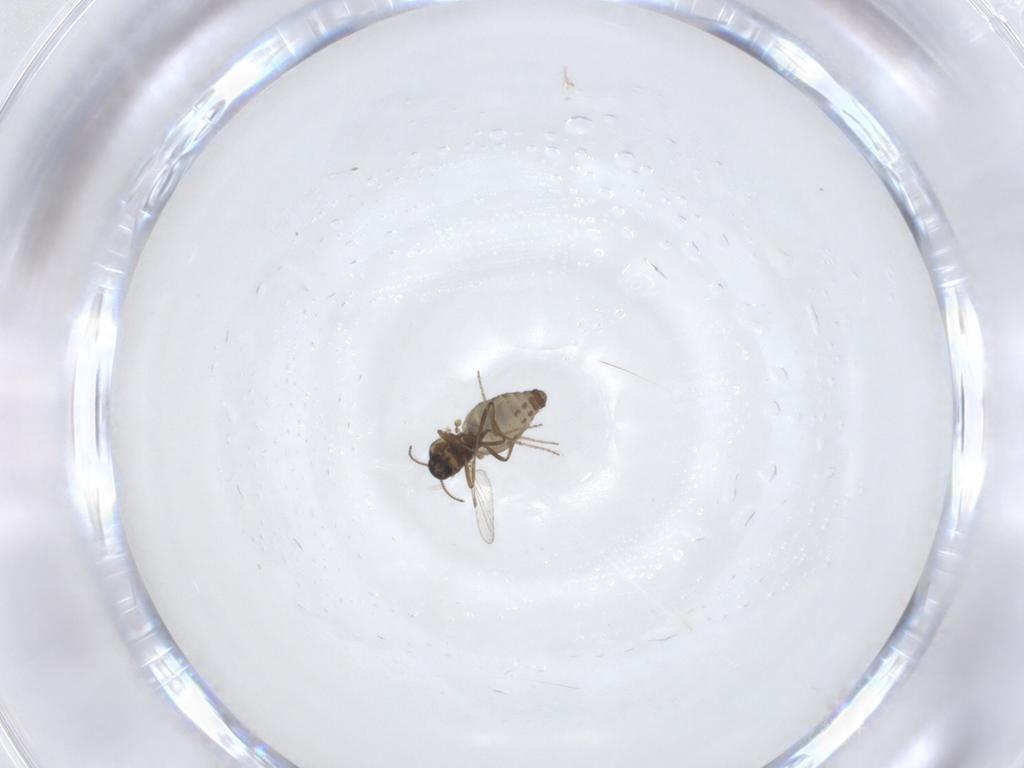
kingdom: Animalia
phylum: Arthropoda
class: Insecta
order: Diptera
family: Ceratopogonidae
